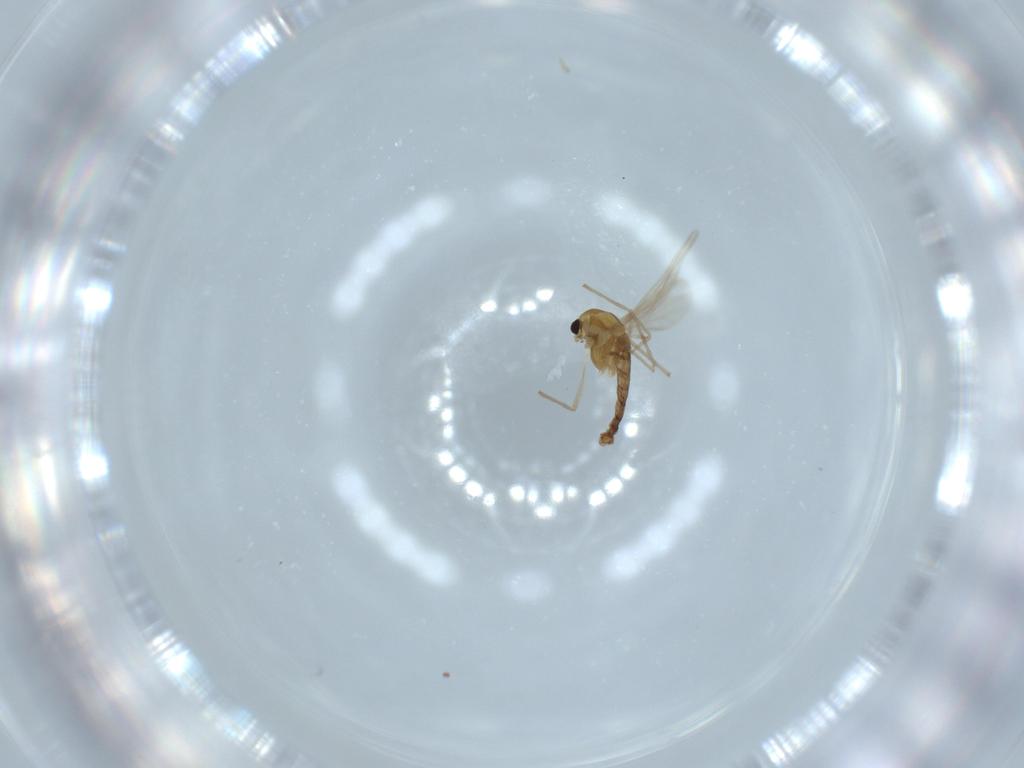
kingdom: Animalia
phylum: Arthropoda
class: Insecta
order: Diptera
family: Chironomidae
